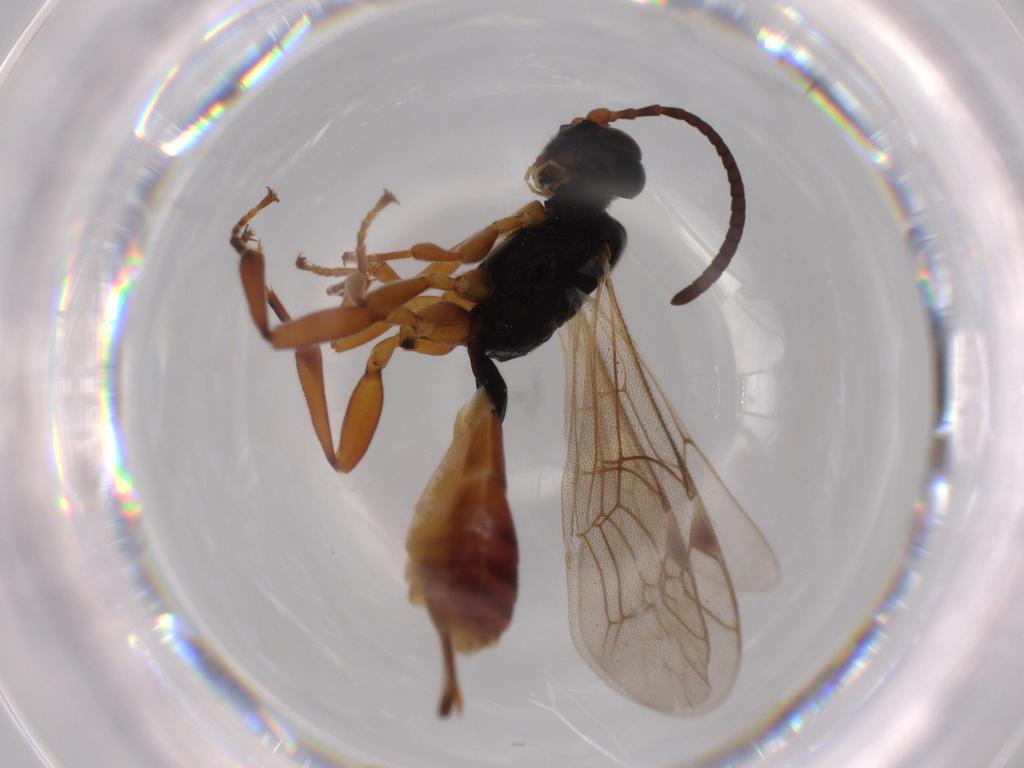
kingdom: Animalia
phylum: Arthropoda
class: Insecta
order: Hymenoptera
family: Ichneumonidae
